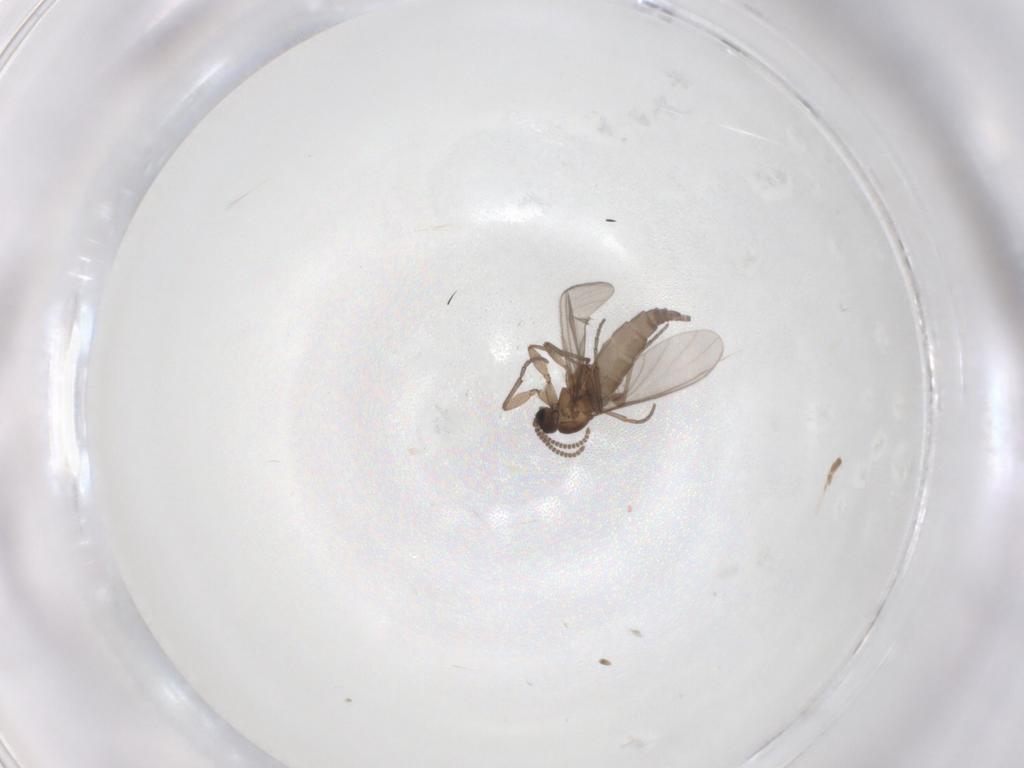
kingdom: Animalia
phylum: Arthropoda
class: Insecta
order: Diptera
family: Sciaridae
